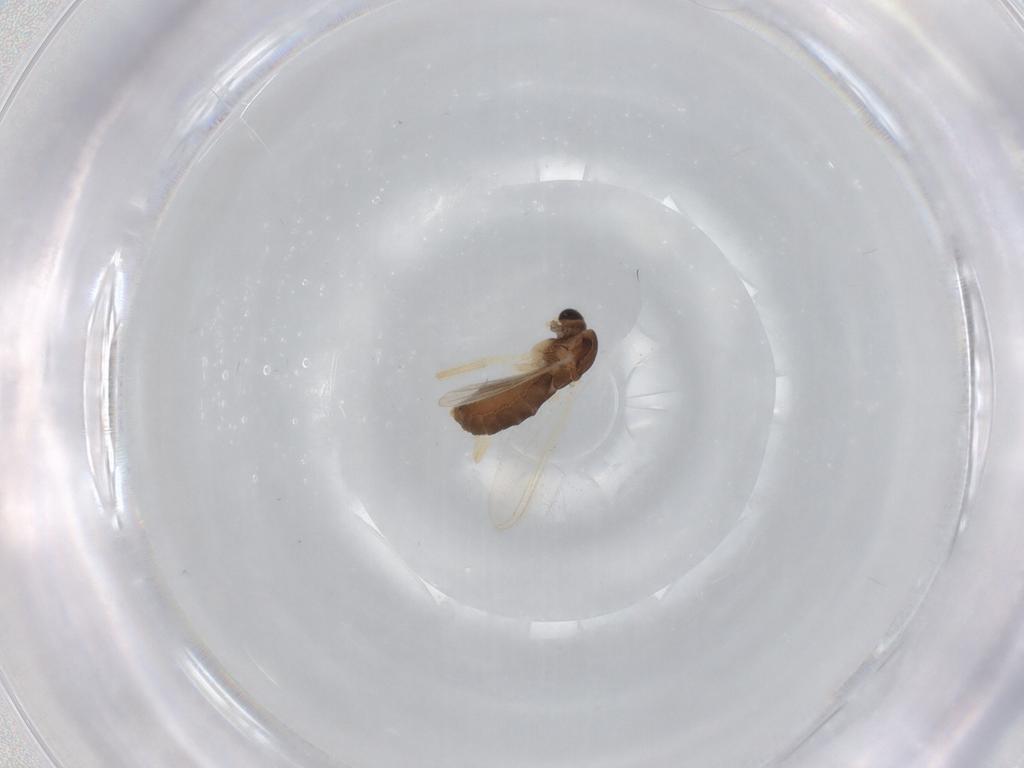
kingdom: Animalia
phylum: Arthropoda
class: Insecta
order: Diptera
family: Chironomidae
